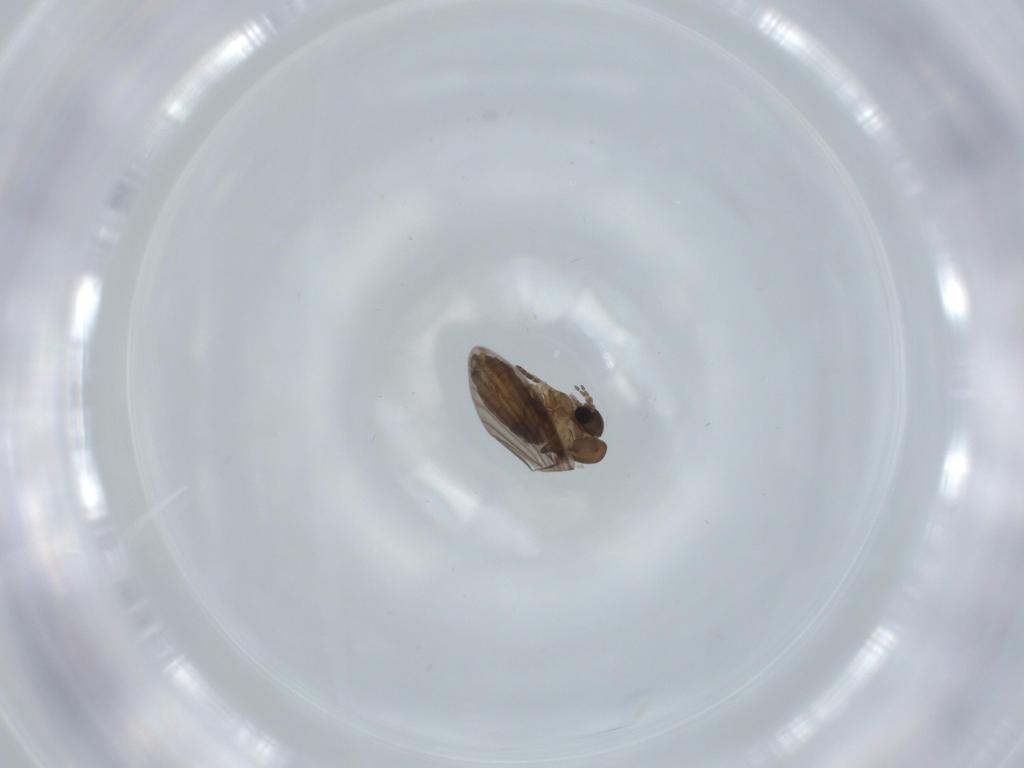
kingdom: Animalia
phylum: Arthropoda
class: Insecta
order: Diptera
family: Psychodidae
